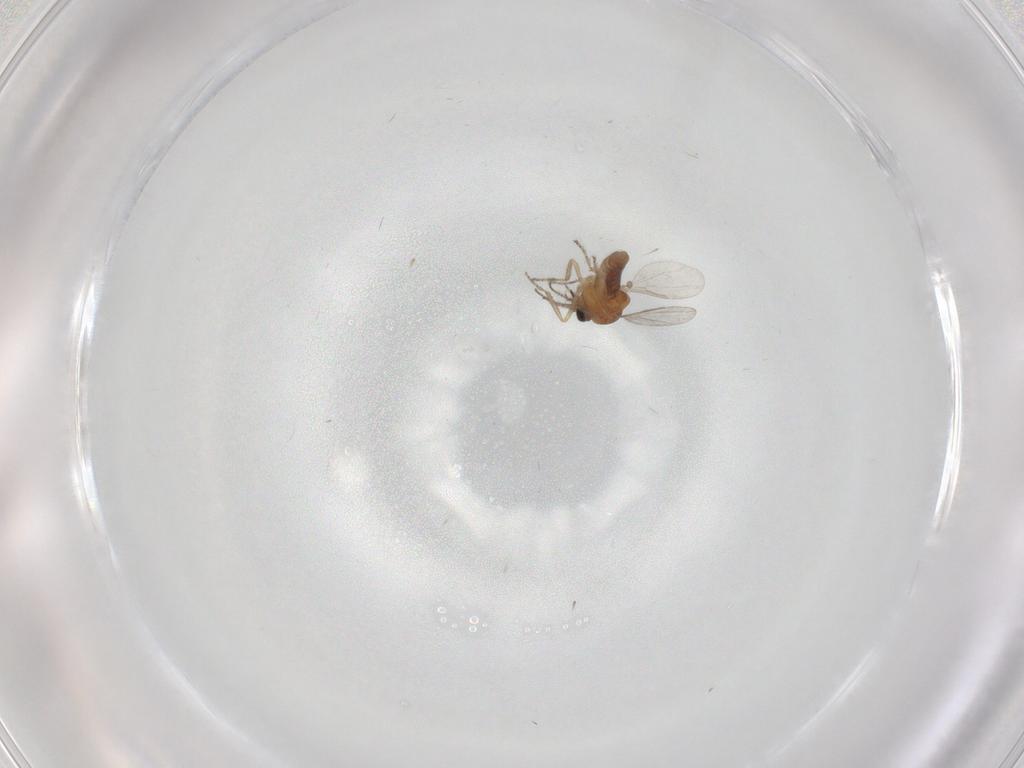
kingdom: Animalia
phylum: Arthropoda
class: Insecta
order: Diptera
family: Ceratopogonidae
